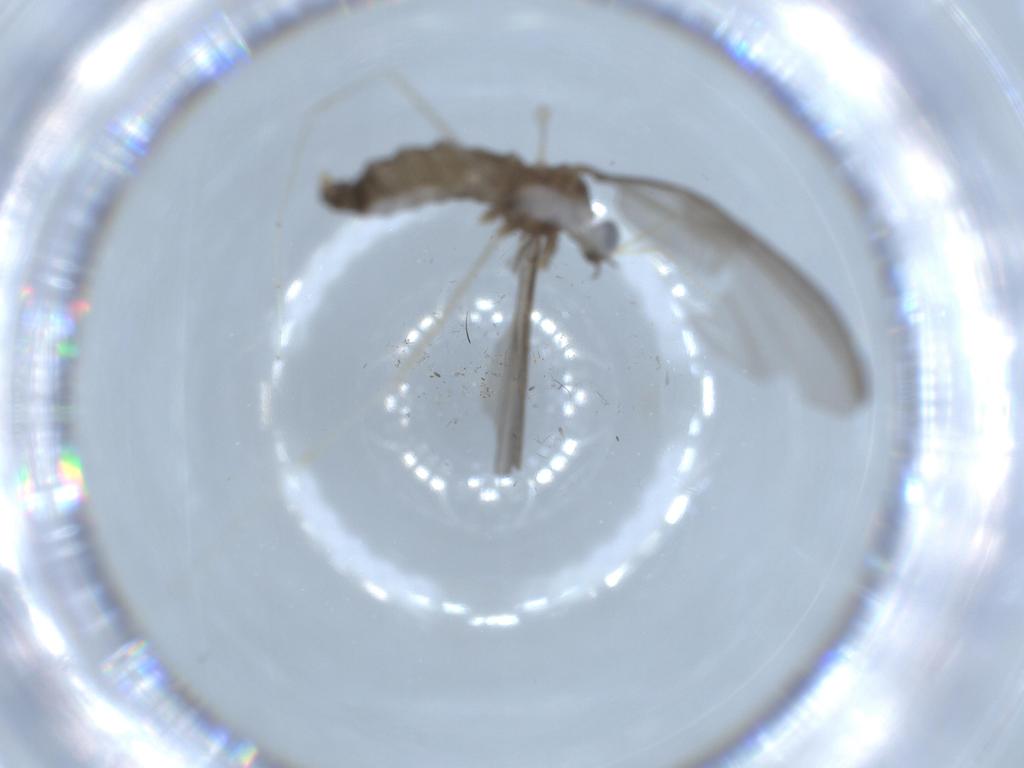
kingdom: Animalia
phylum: Arthropoda
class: Insecta
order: Diptera
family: Cecidomyiidae
